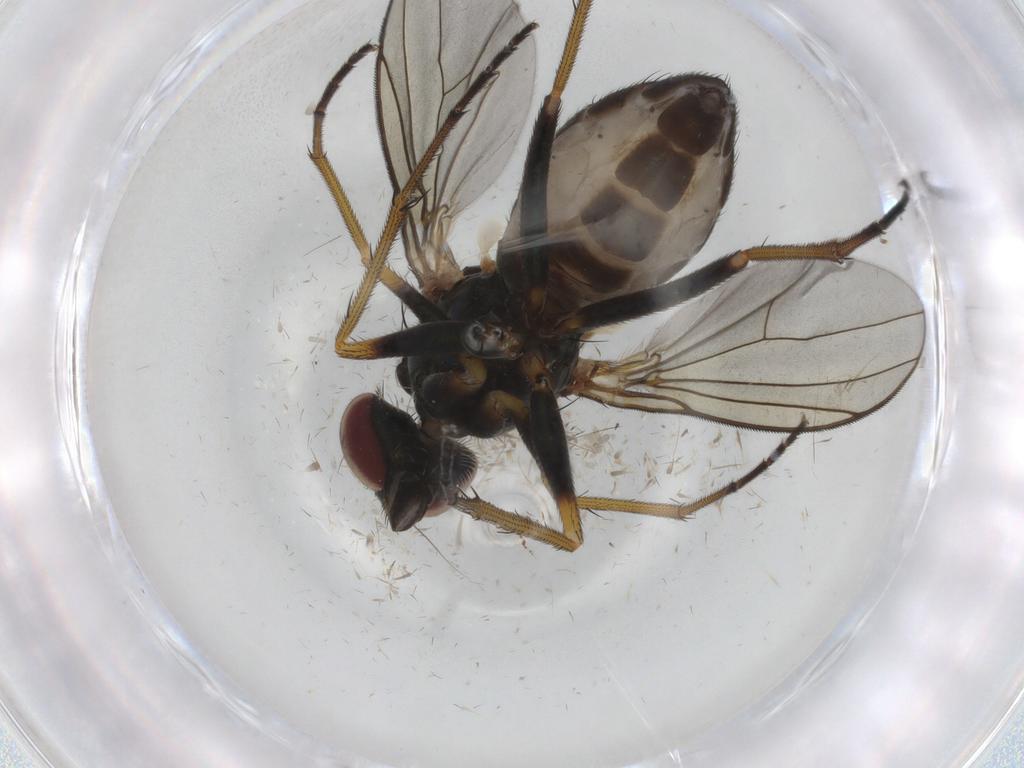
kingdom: Animalia
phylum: Arthropoda
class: Insecta
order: Diptera
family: Dolichopodidae
